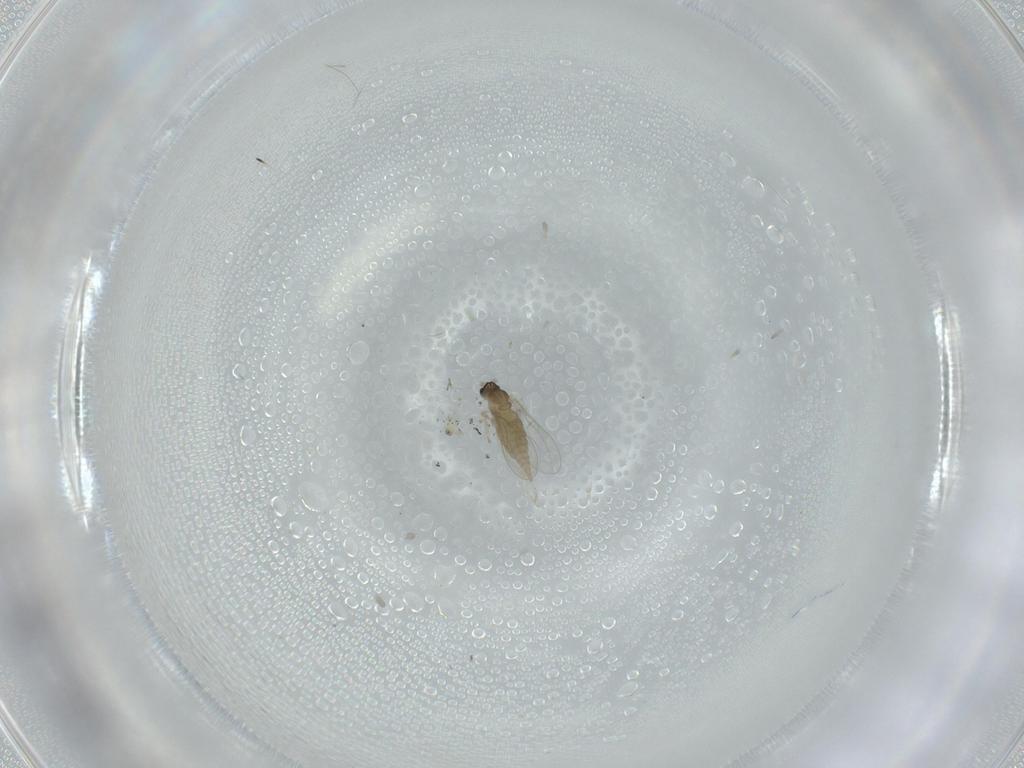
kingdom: Animalia
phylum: Arthropoda
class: Insecta
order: Diptera
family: Cecidomyiidae
